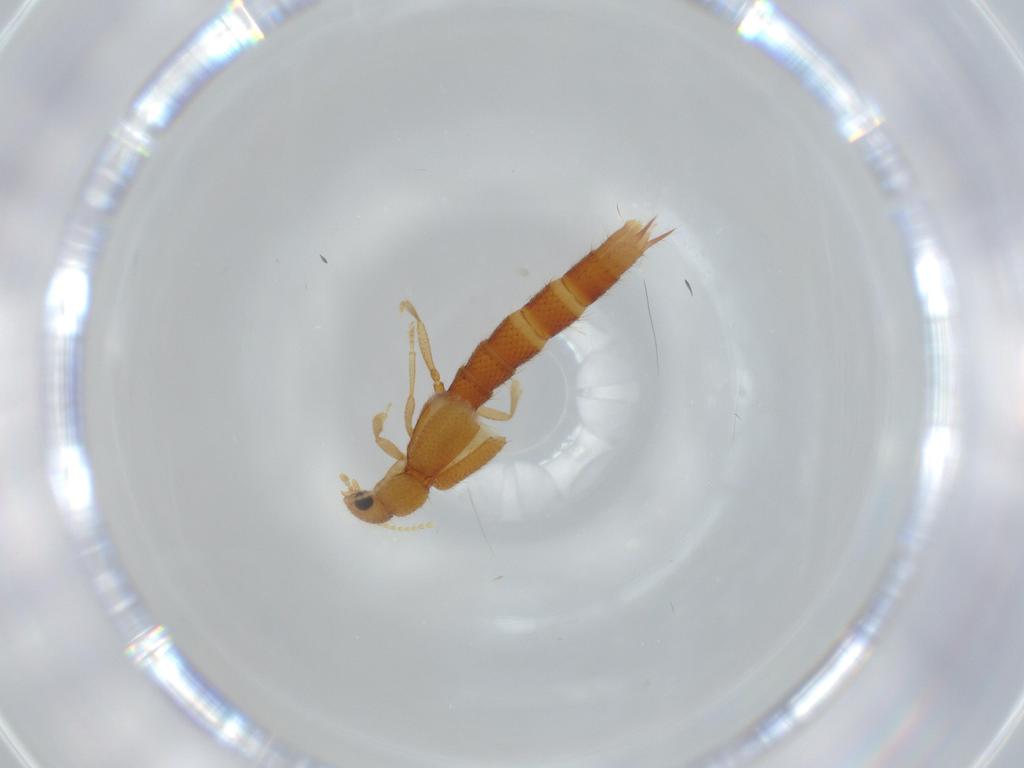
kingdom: Animalia
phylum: Arthropoda
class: Insecta
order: Coleoptera
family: Staphylinidae
